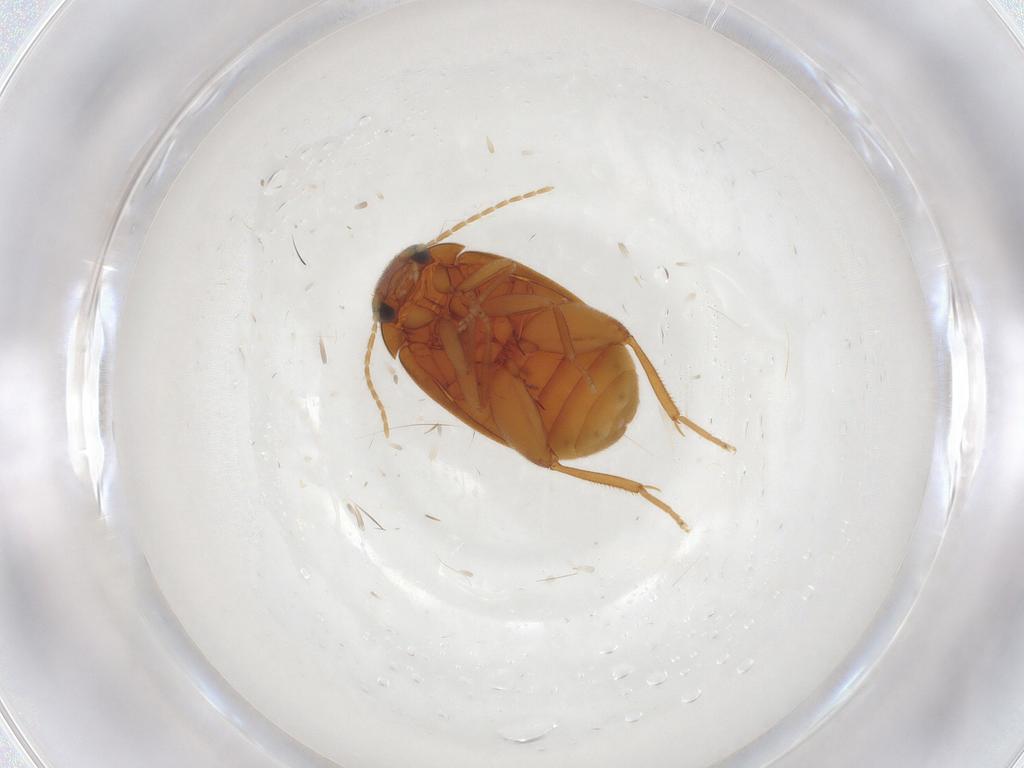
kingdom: Animalia
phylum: Arthropoda
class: Insecta
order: Coleoptera
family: Scirtidae
